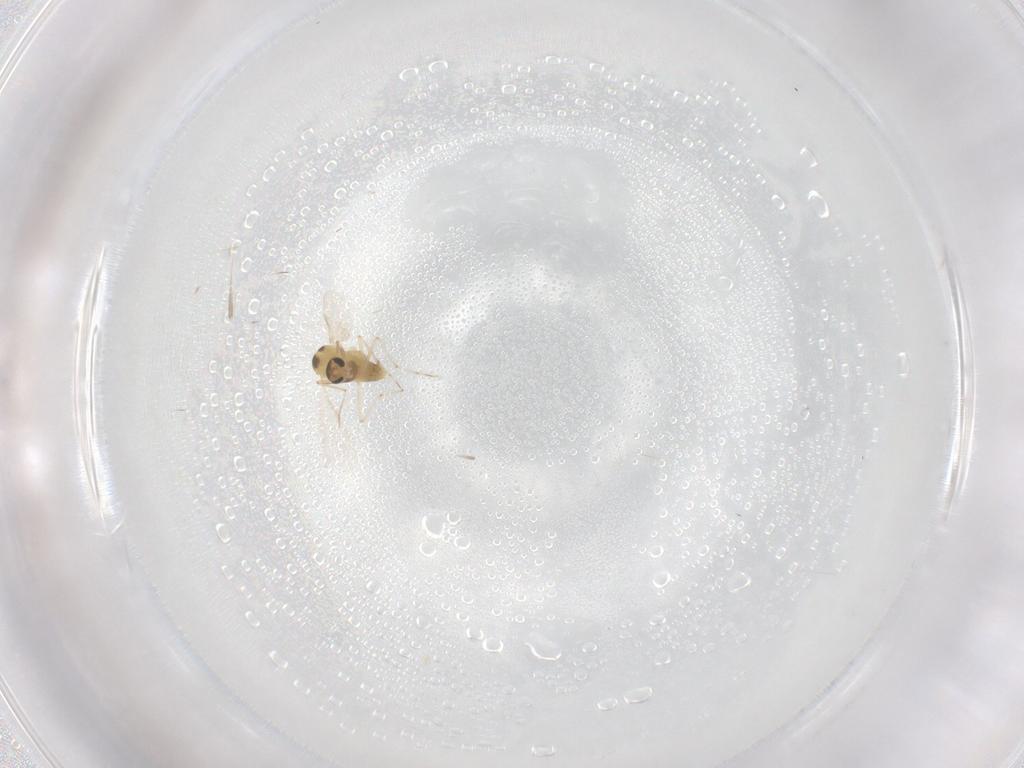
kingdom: Animalia
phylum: Arthropoda
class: Insecta
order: Diptera
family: Chironomidae
